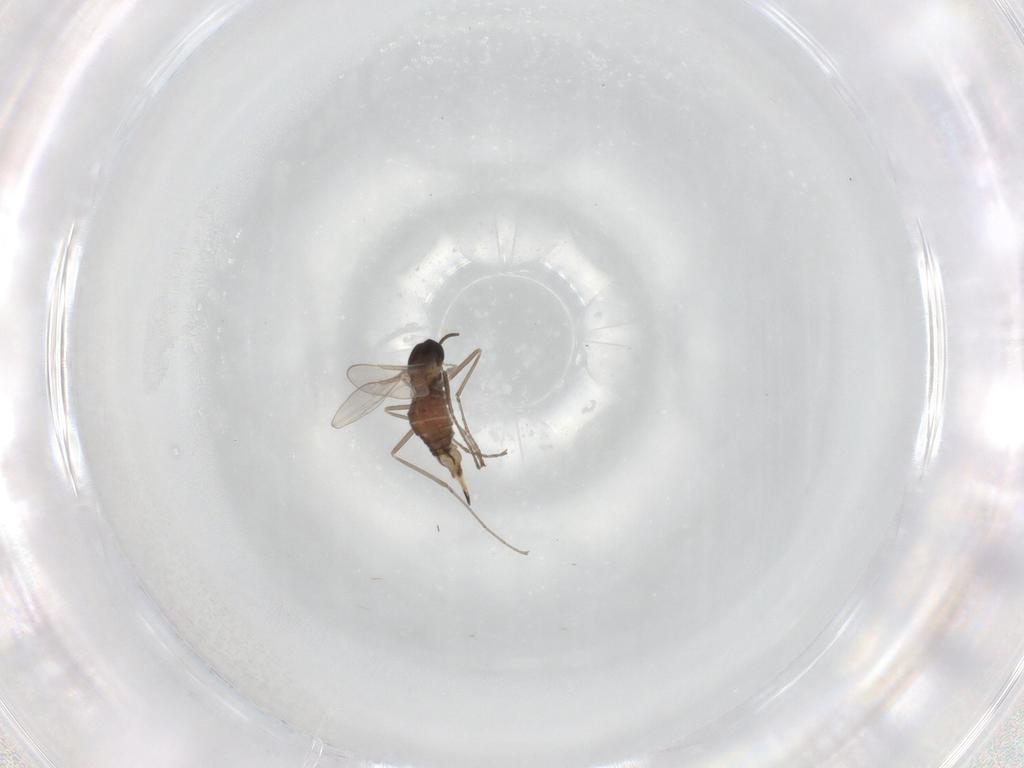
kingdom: Animalia
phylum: Arthropoda
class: Insecta
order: Diptera
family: Cecidomyiidae
